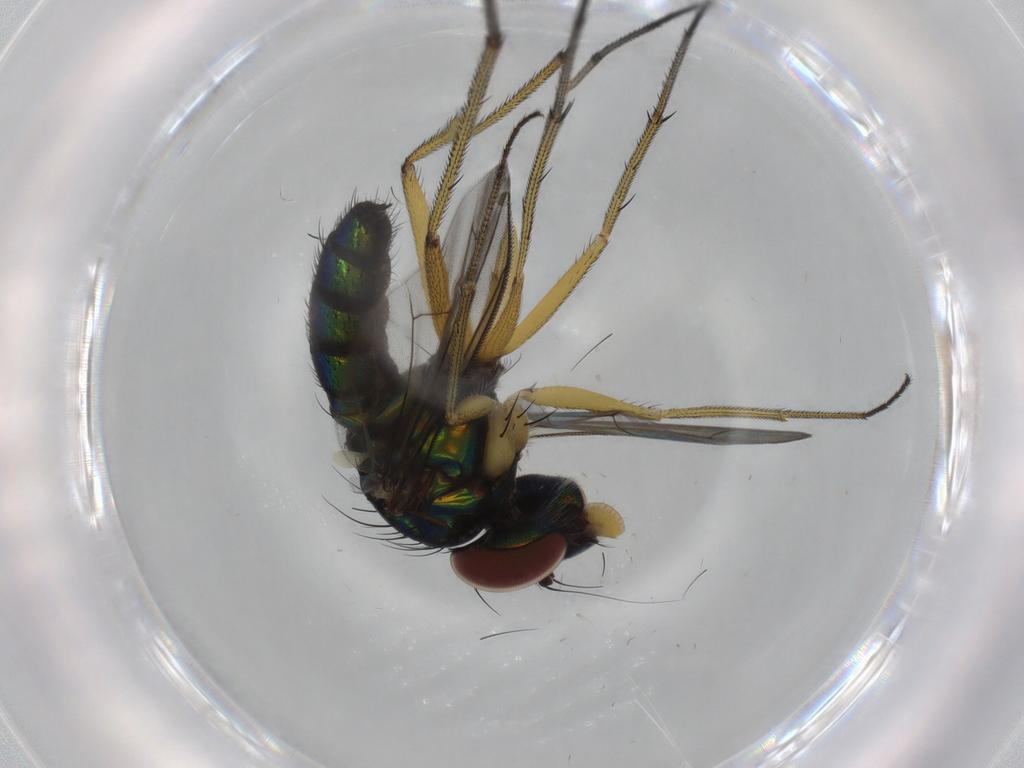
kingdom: Animalia
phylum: Arthropoda
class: Insecta
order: Diptera
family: Dolichopodidae
